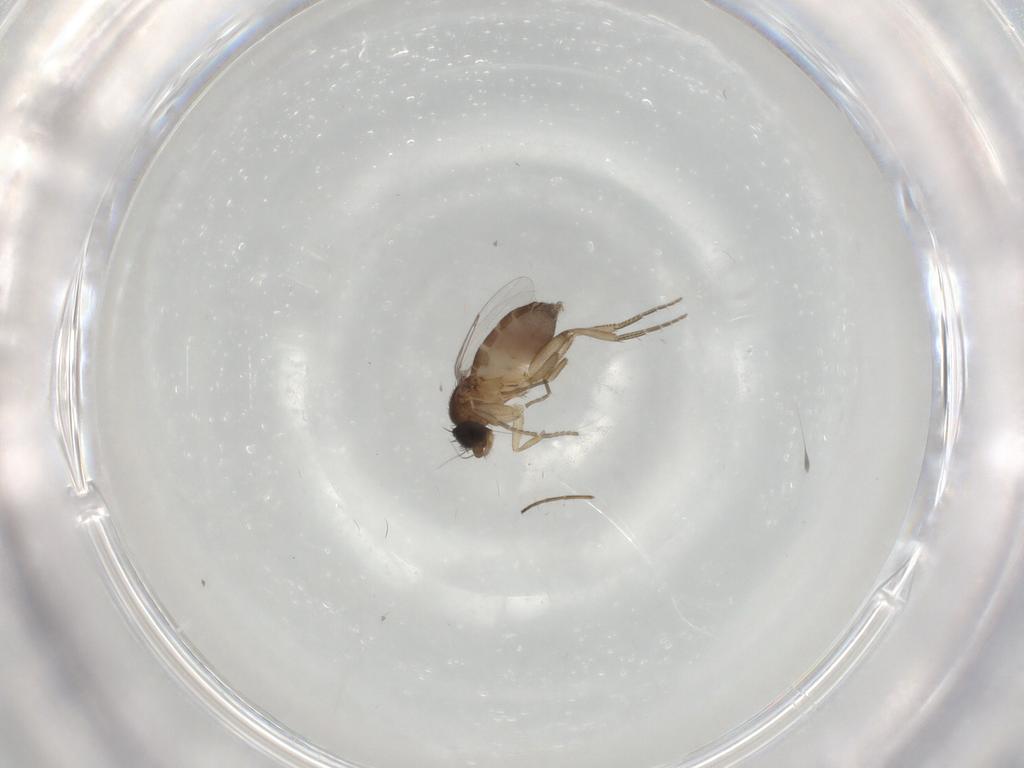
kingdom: Animalia
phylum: Arthropoda
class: Insecta
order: Diptera
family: Phoridae
